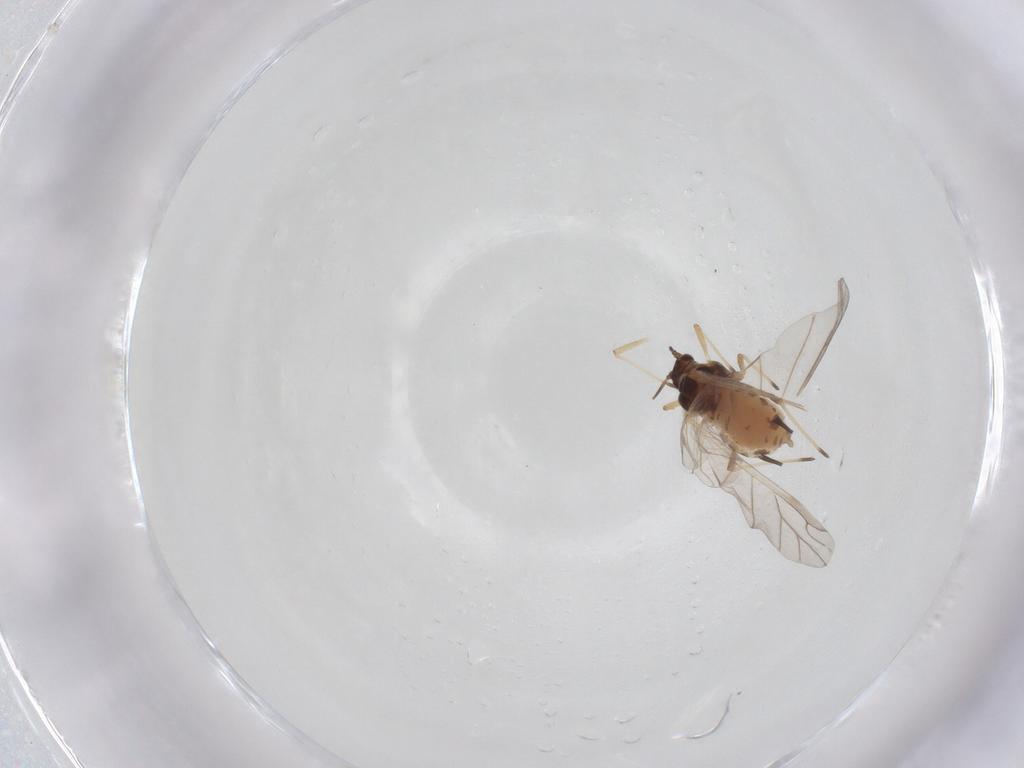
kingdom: Animalia
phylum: Arthropoda
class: Insecta
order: Hemiptera
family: Aphididae
